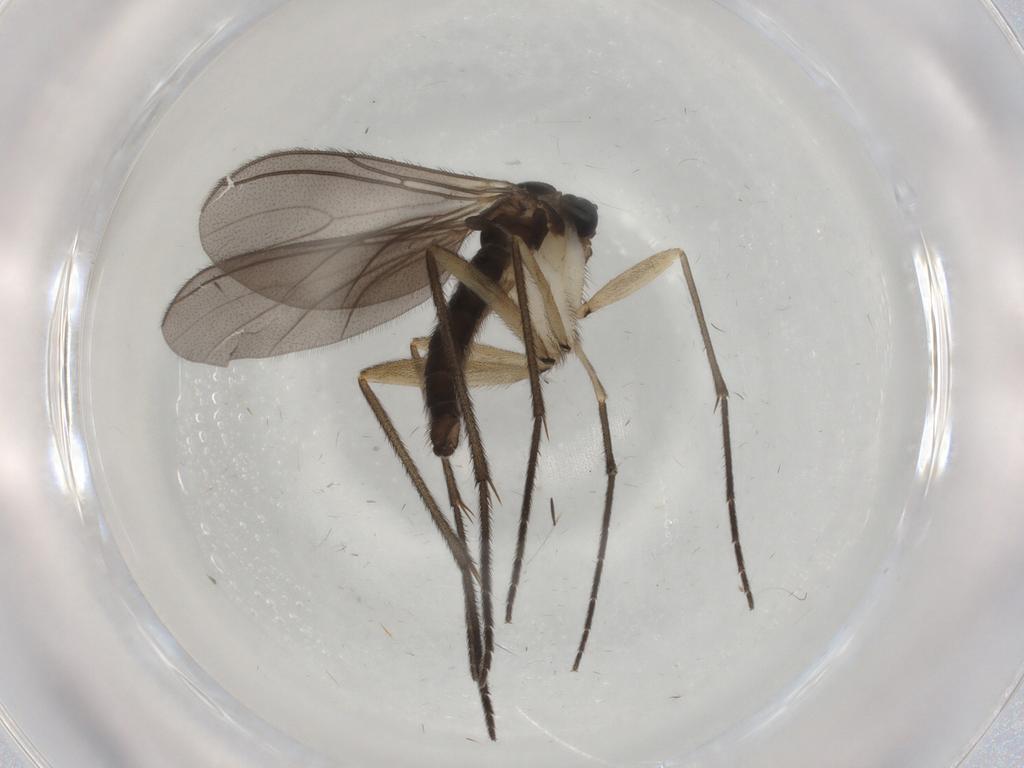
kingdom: Animalia
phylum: Arthropoda
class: Insecta
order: Diptera
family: Sciaridae
